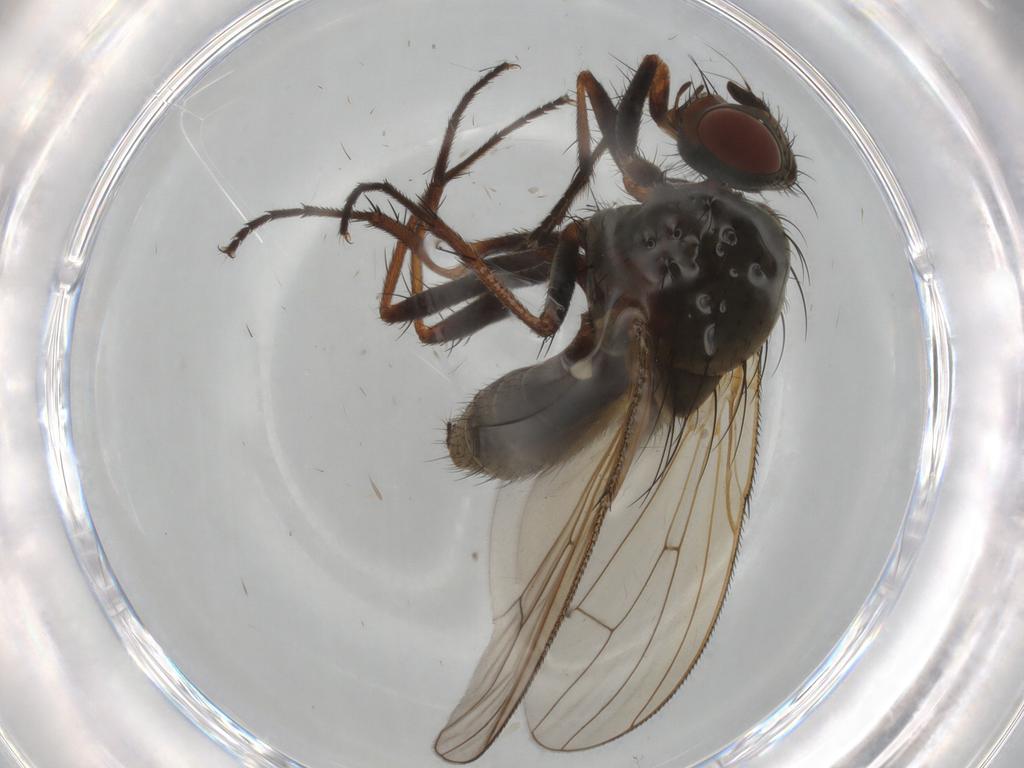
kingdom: Animalia
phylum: Arthropoda
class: Insecta
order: Diptera
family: Anthomyiidae
